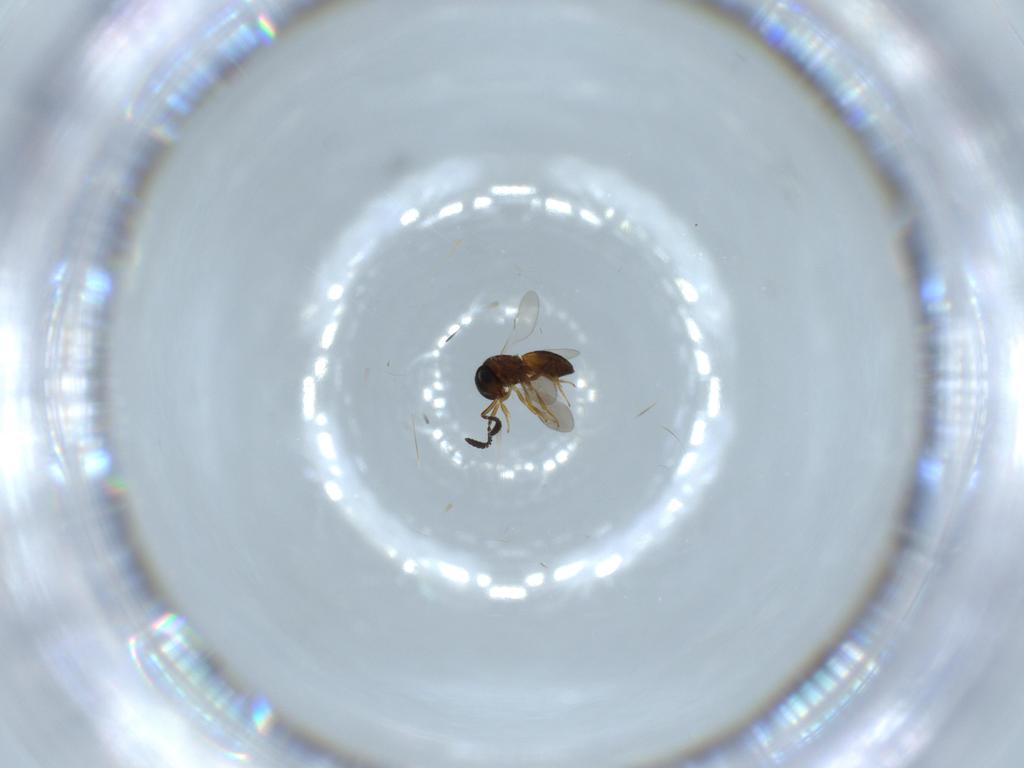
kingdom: Animalia
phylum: Arthropoda
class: Insecta
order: Hymenoptera
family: Scelionidae
